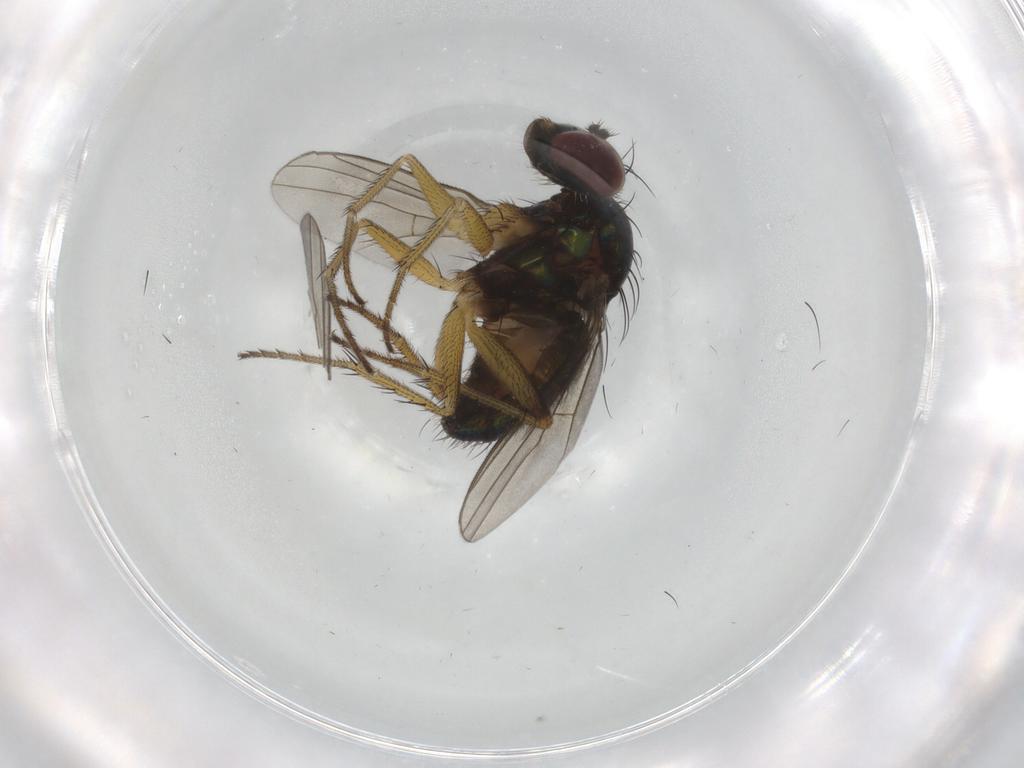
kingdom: Animalia
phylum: Arthropoda
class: Insecta
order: Diptera
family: Dolichopodidae
